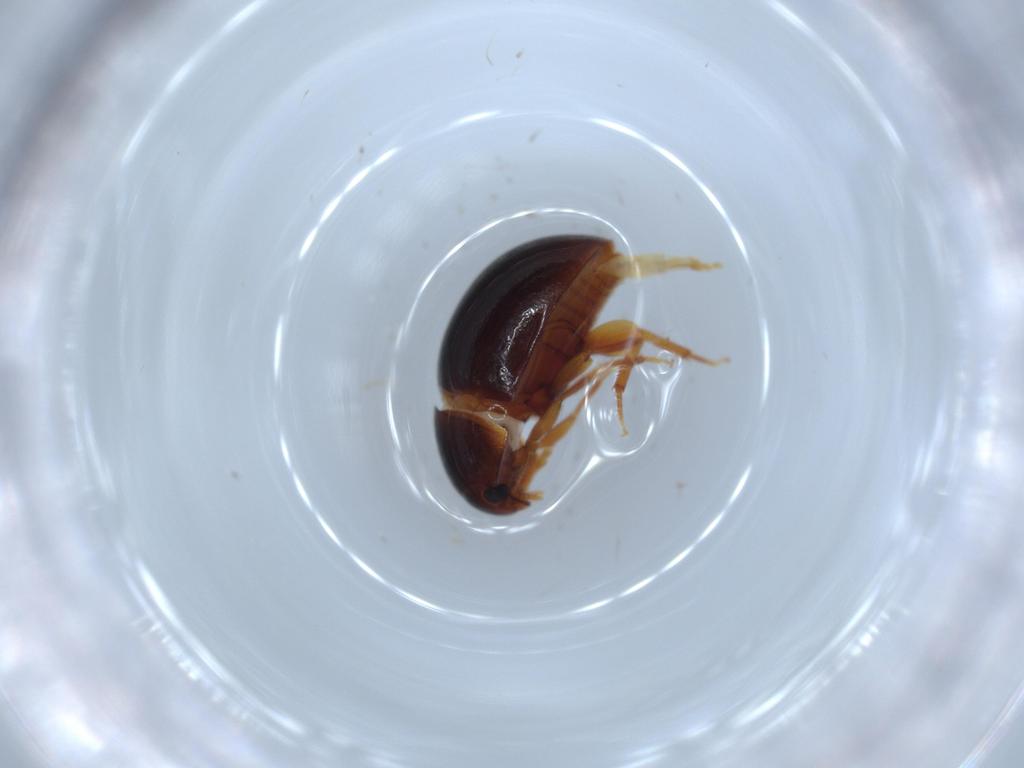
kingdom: Animalia
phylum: Arthropoda
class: Insecta
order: Coleoptera
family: Phalacridae
